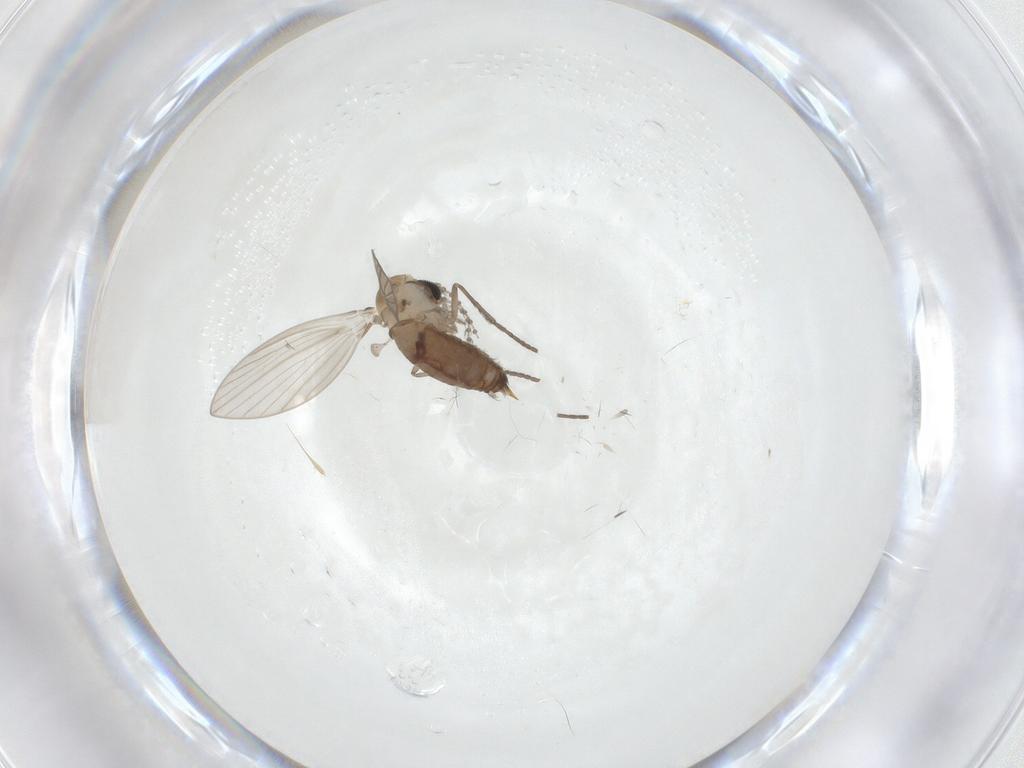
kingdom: Animalia
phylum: Arthropoda
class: Insecta
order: Diptera
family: Psychodidae
